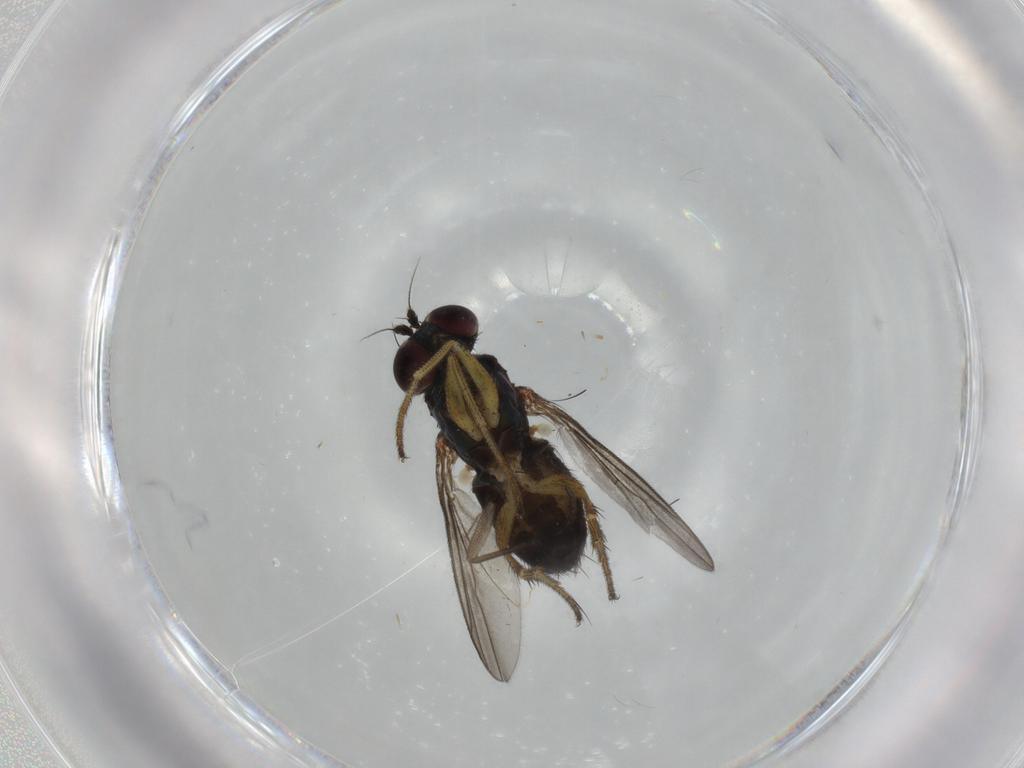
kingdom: Animalia
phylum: Arthropoda
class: Insecta
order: Diptera
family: Dolichopodidae
